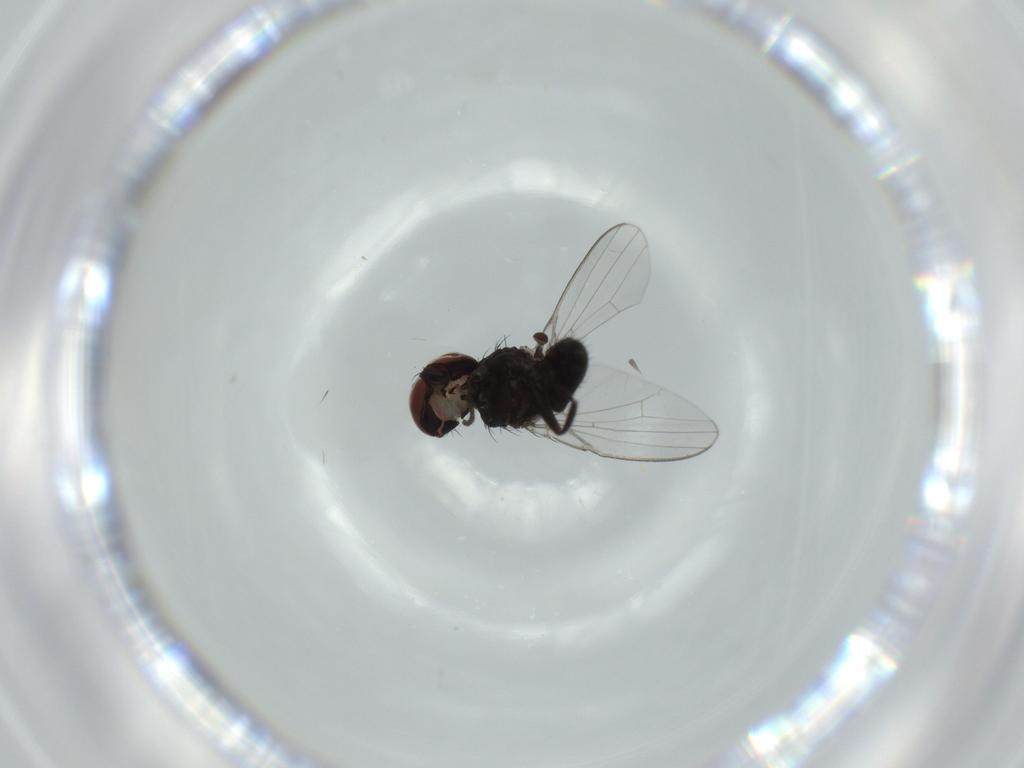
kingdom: Animalia
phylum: Arthropoda
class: Insecta
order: Diptera
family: Milichiidae
